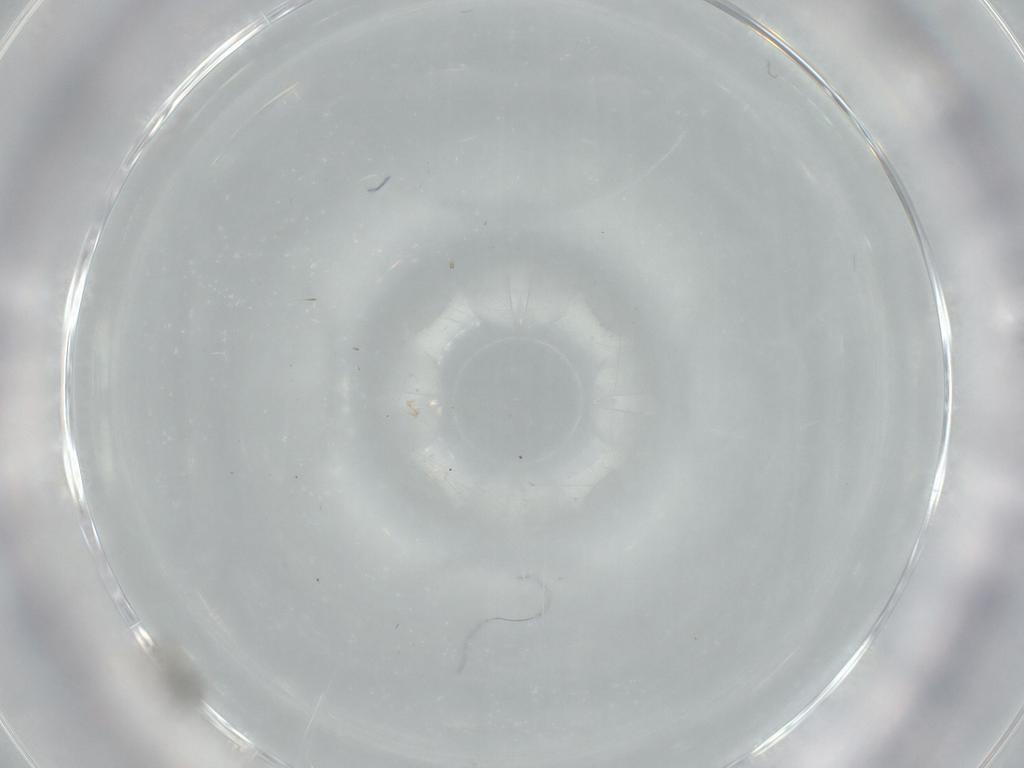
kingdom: Animalia
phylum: Arthropoda
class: Insecta
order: Diptera
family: Cecidomyiidae
